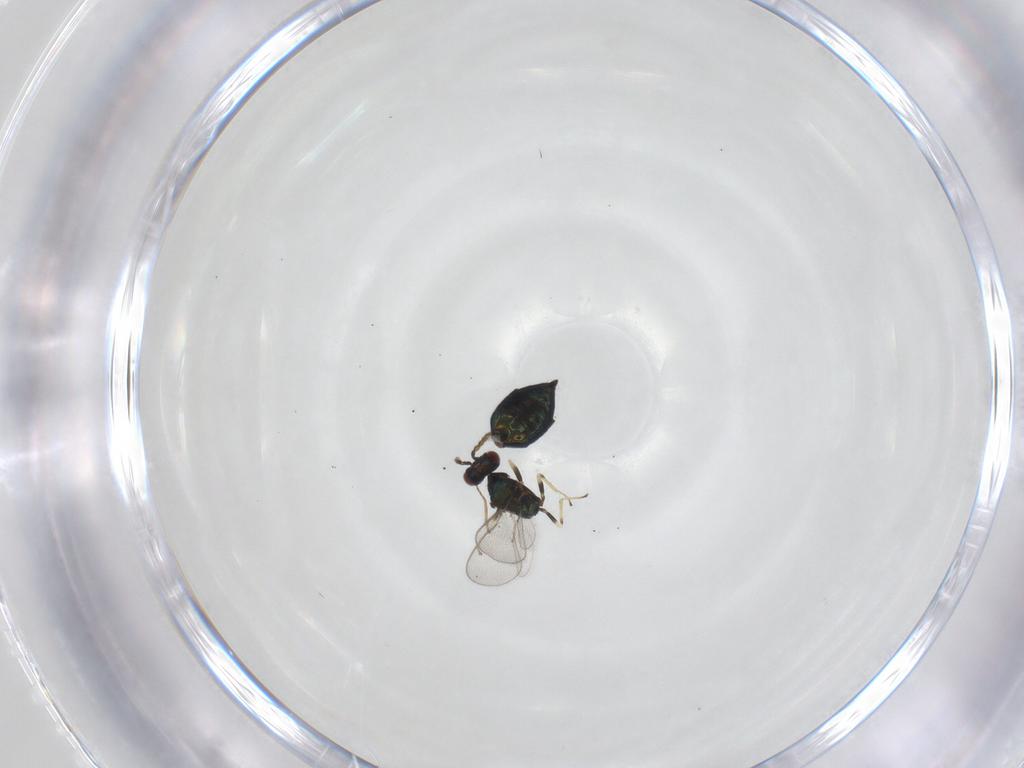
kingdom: Animalia
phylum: Arthropoda
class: Insecta
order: Hymenoptera
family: Pteromalidae
